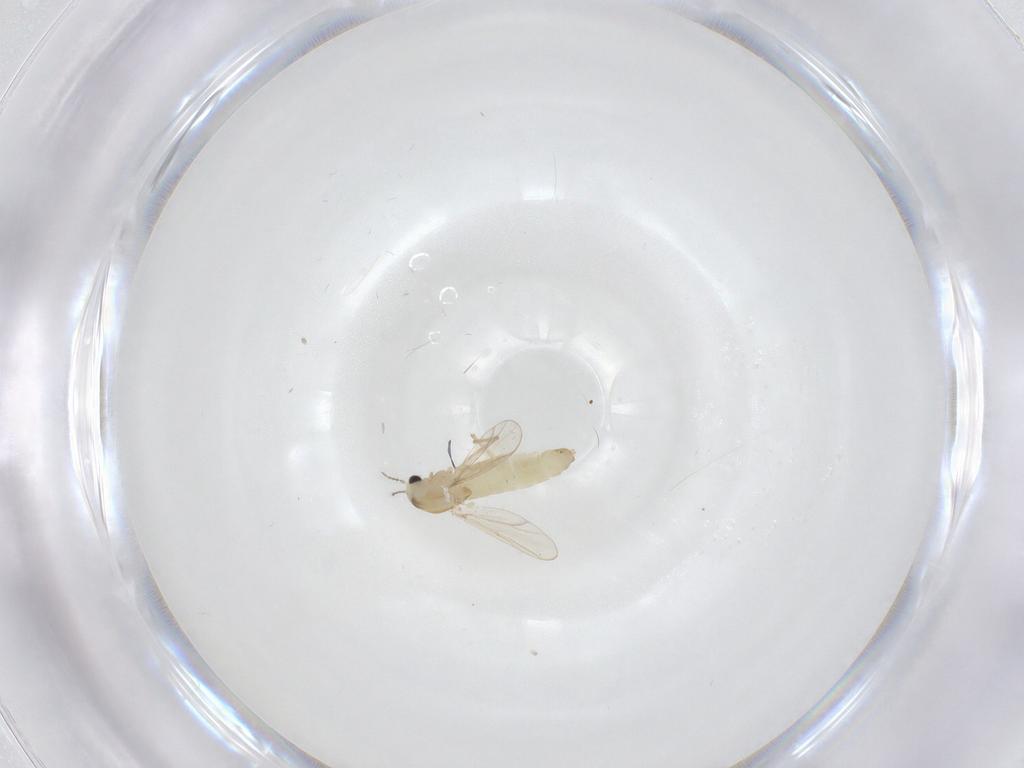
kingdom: Animalia
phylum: Arthropoda
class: Insecta
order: Diptera
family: Chironomidae
